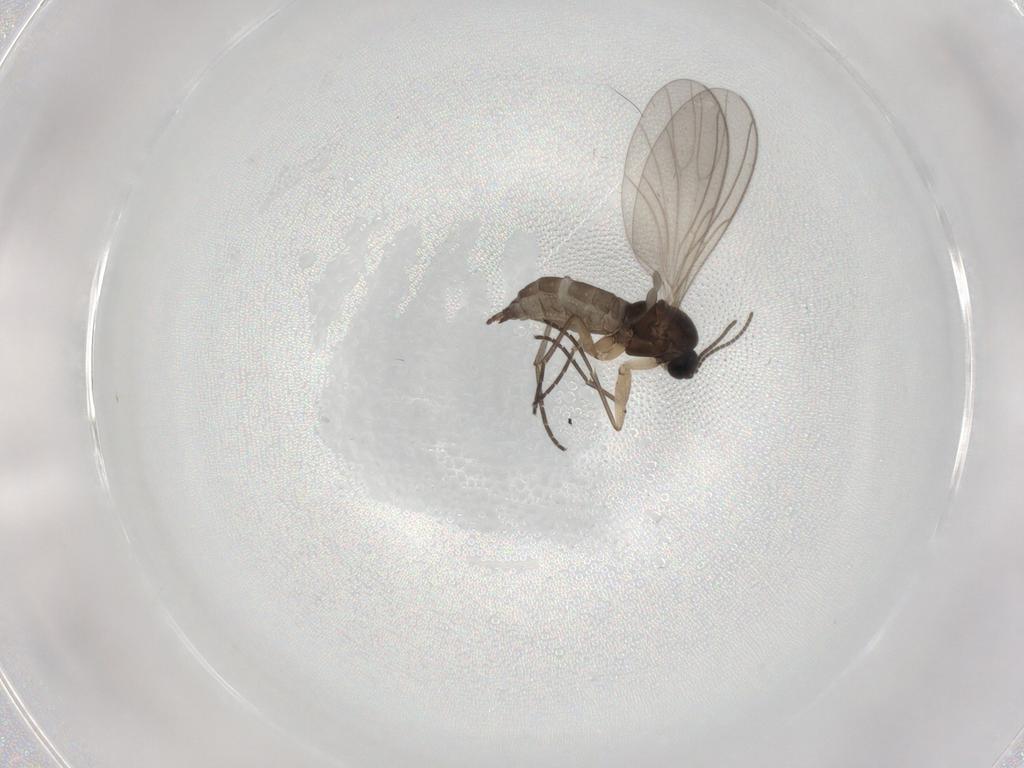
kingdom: Animalia
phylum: Arthropoda
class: Insecta
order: Diptera
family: Sciaridae
